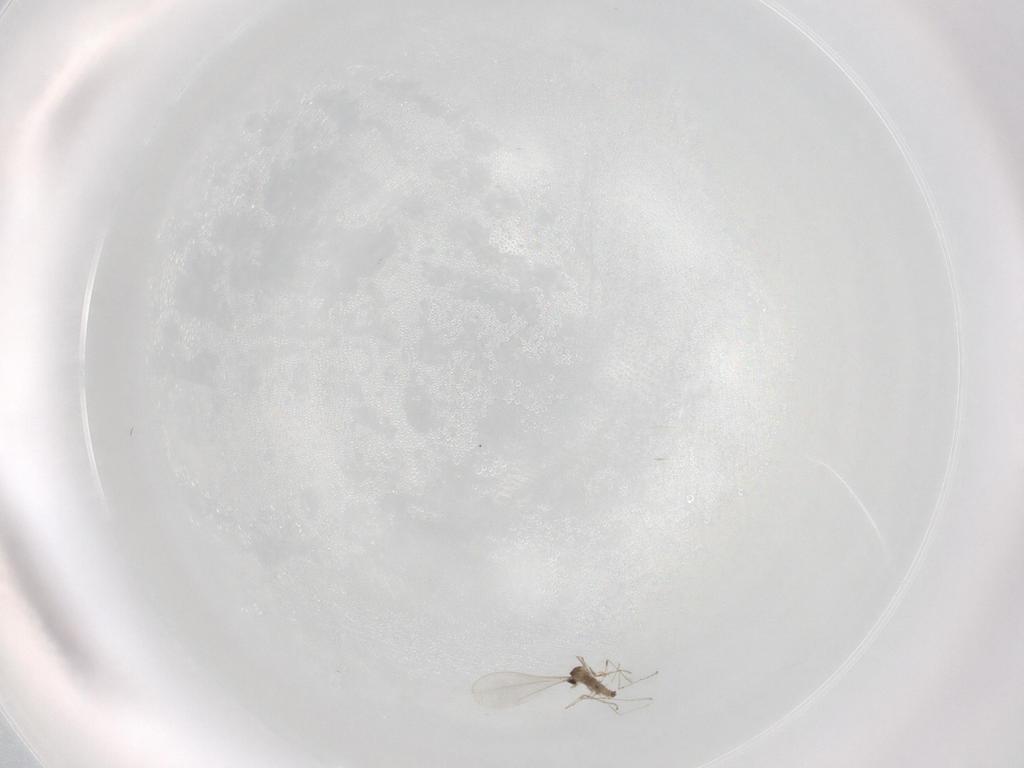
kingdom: Animalia
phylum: Arthropoda
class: Insecta
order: Diptera
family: Cecidomyiidae
